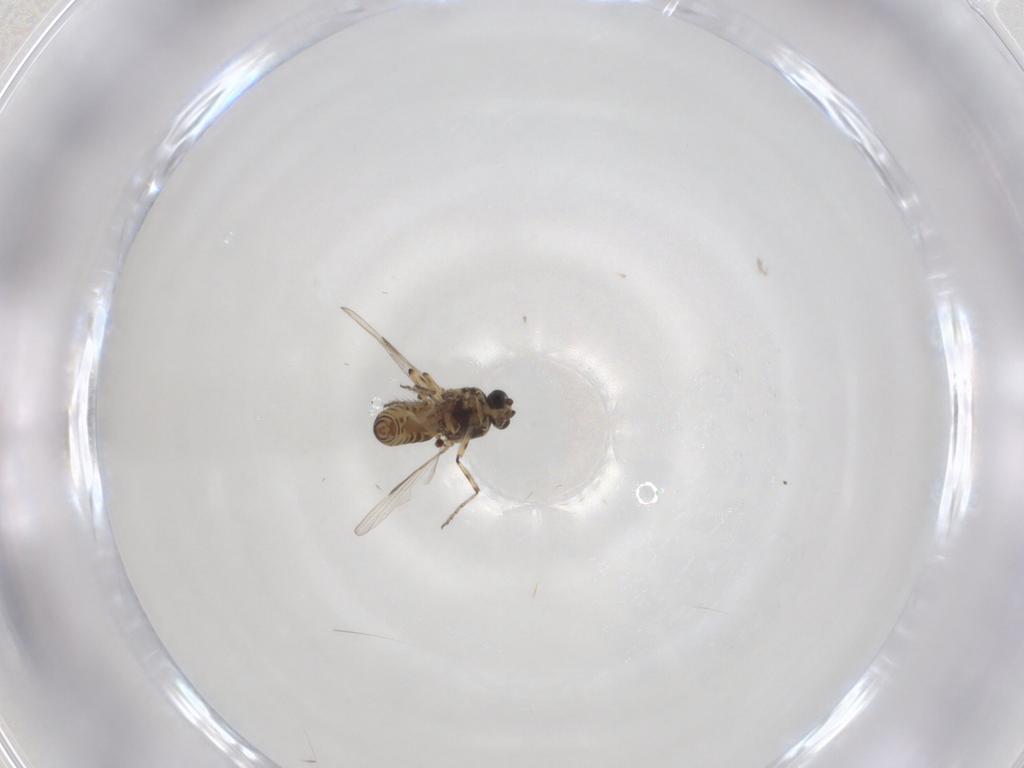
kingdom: Animalia
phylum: Arthropoda
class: Insecta
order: Diptera
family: Ceratopogonidae
